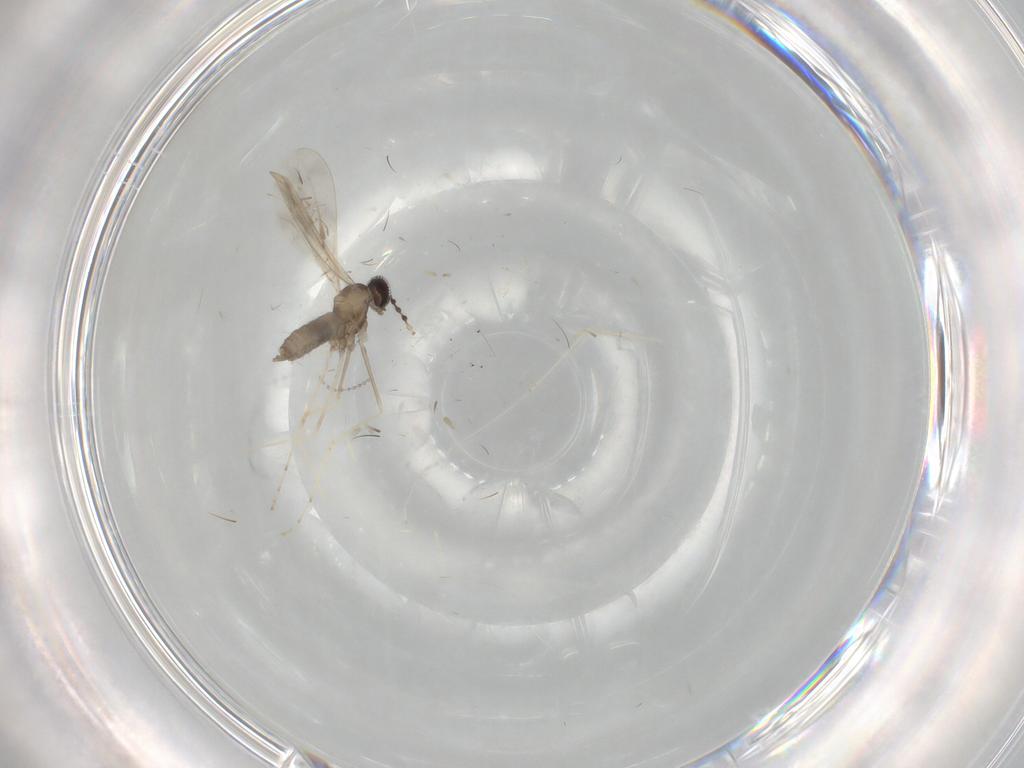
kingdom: Animalia
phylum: Arthropoda
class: Insecta
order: Diptera
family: Cecidomyiidae
